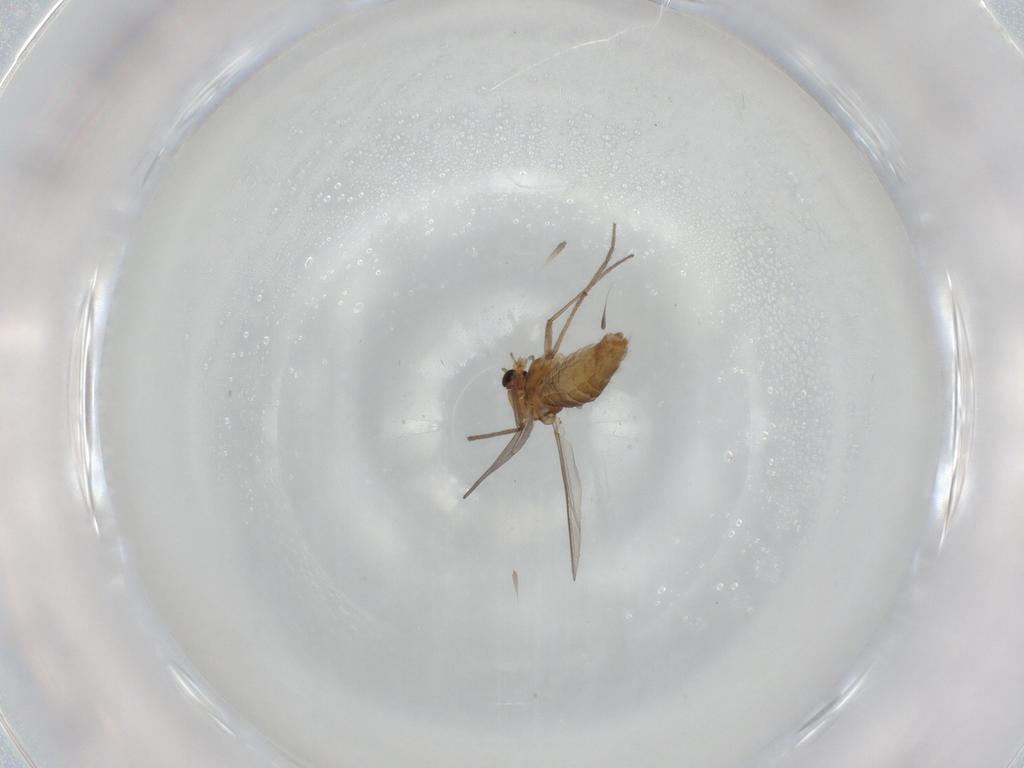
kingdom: Animalia
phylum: Arthropoda
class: Insecta
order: Diptera
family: Chironomidae
